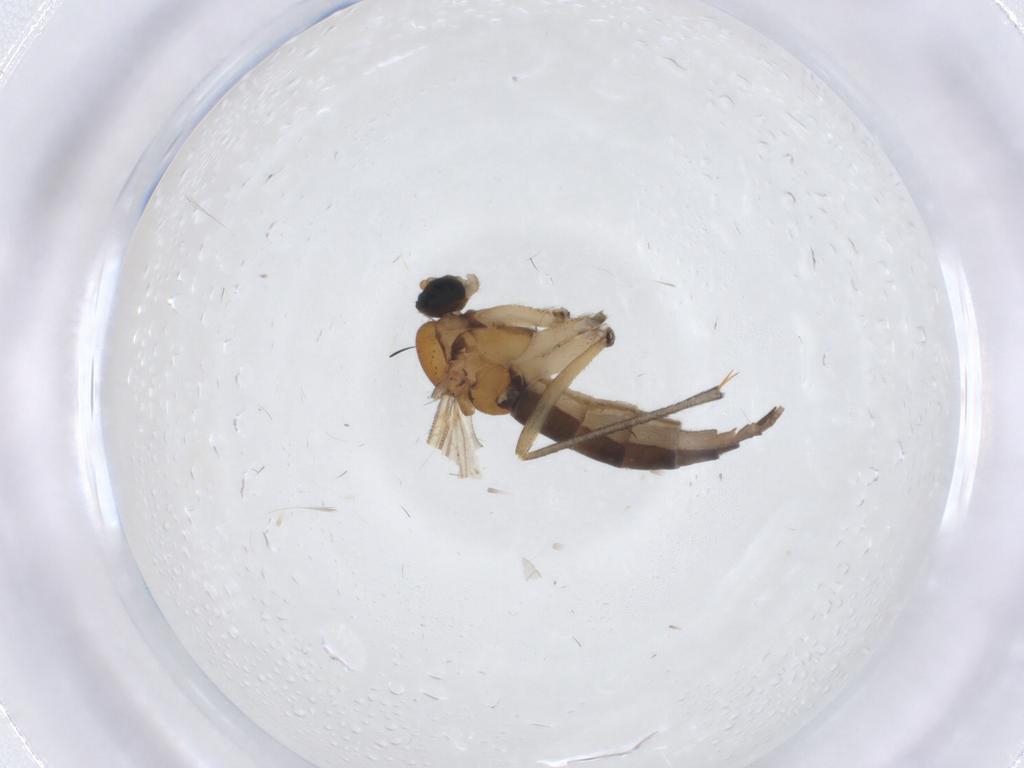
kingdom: Animalia
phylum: Arthropoda
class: Insecta
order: Diptera
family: Sciaridae
